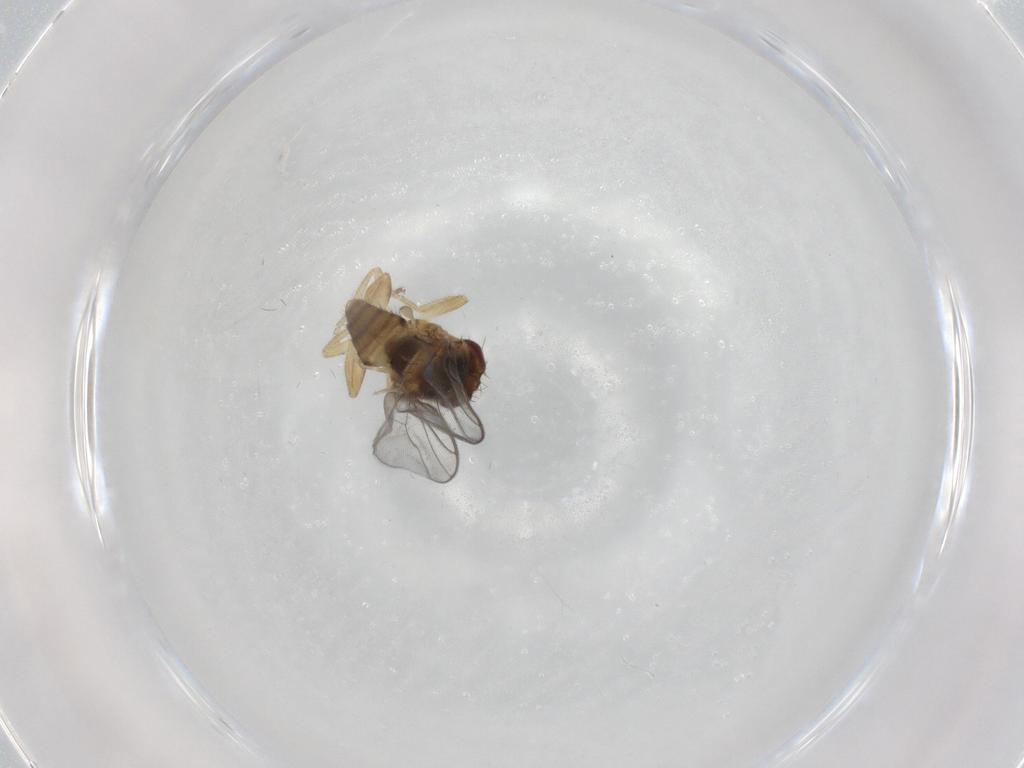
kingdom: Animalia
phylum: Arthropoda
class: Insecta
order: Diptera
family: Chloropidae
